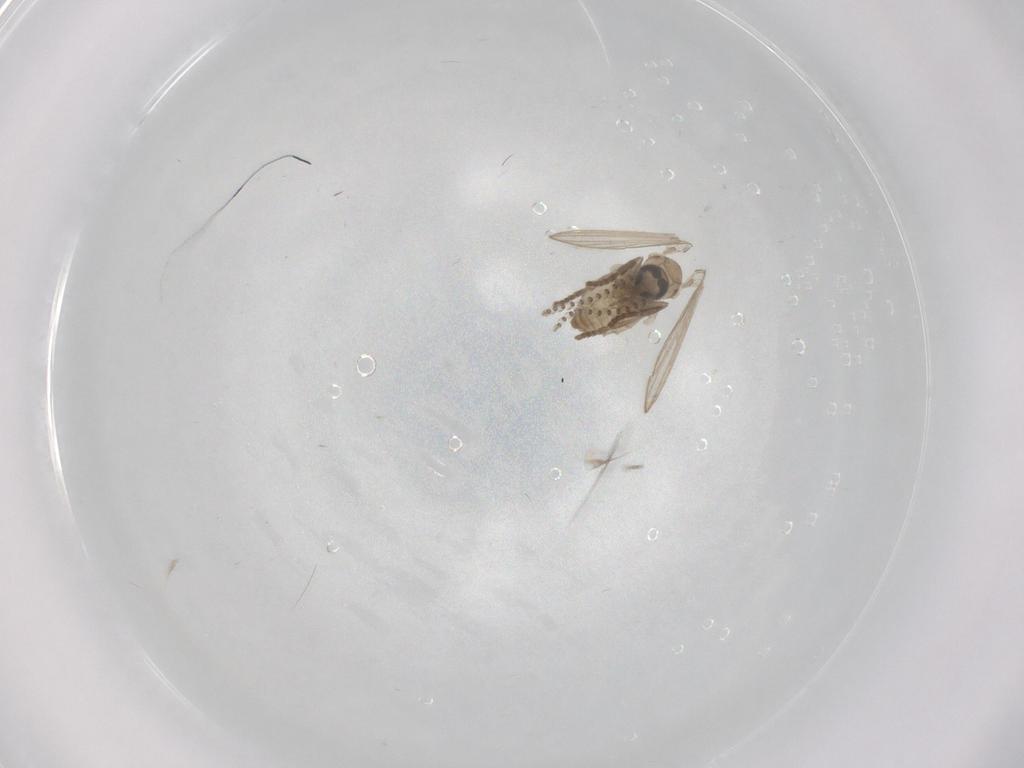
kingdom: Animalia
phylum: Arthropoda
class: Insecta
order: Diptera
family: Psychodidae
